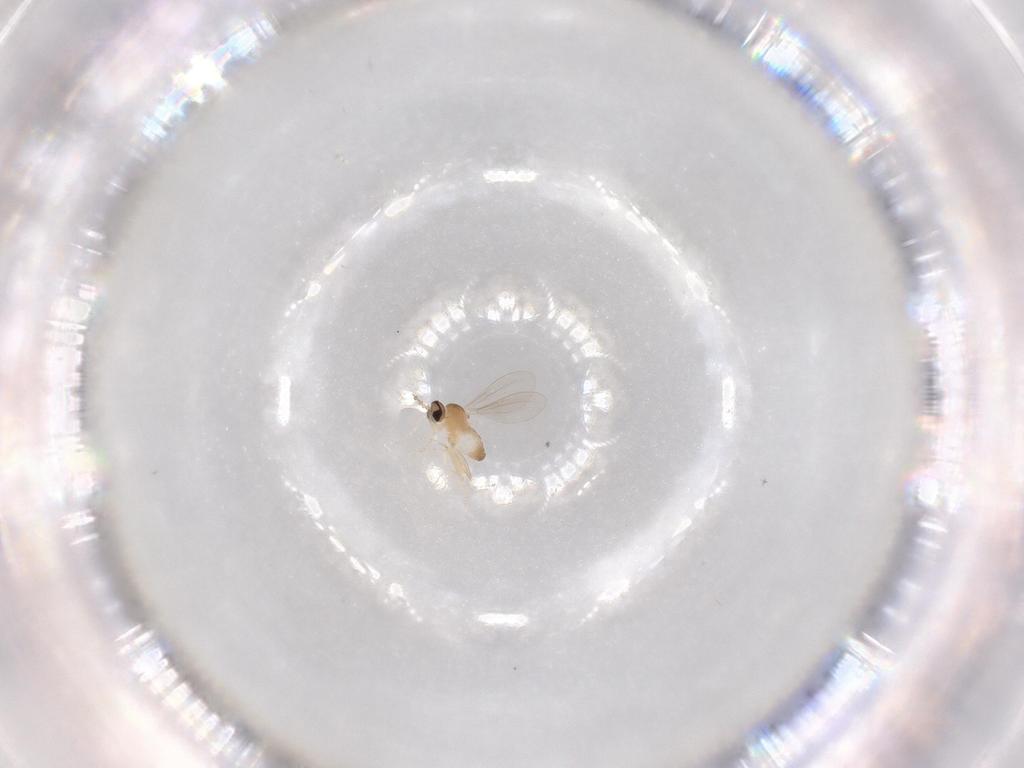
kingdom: Animalia
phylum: Arthropoda
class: Insecta
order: Diptera
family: Cecidomyiidae
